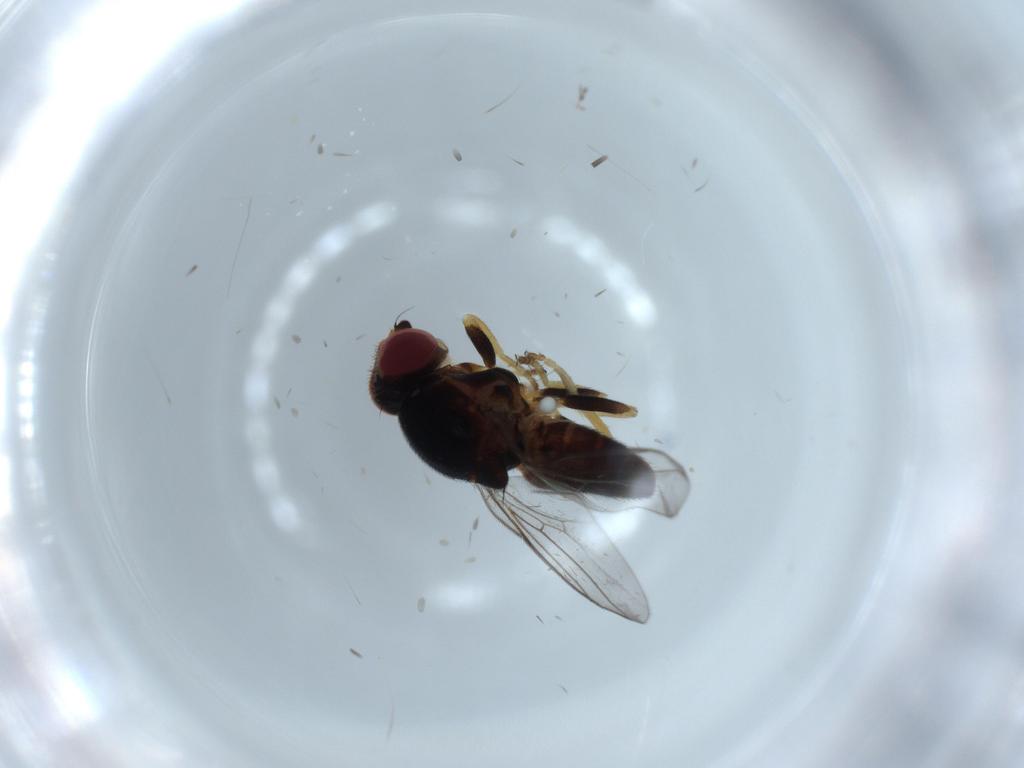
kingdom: Animalia
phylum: Arthropoda
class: Insecta
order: Diptera
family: Chloropidae
